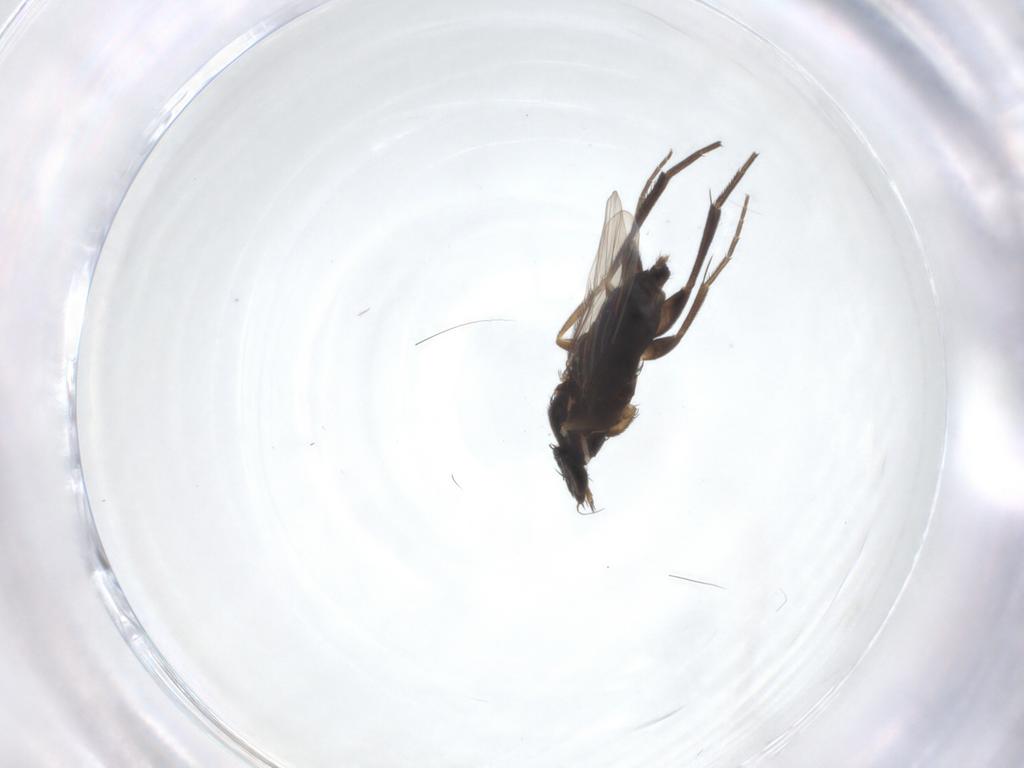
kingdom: Animalia
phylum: Arthropoda
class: Insecta
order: Diptera
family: Phoridae
